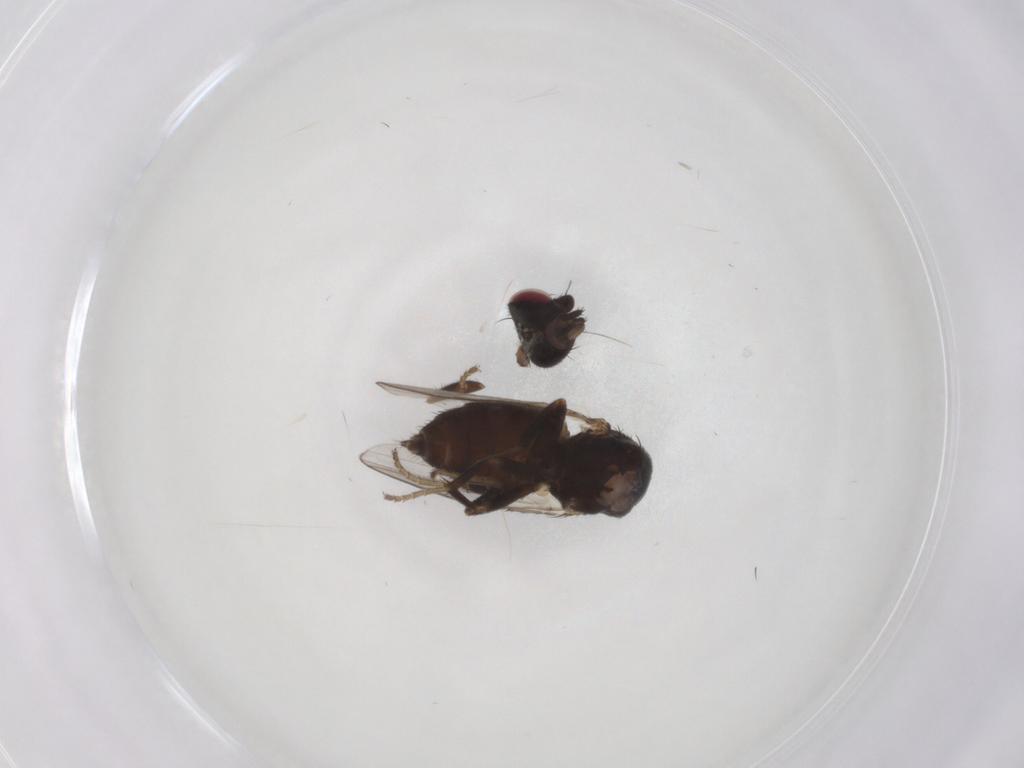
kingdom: Animalia
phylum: Arthropoda
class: Insecta
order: Diptera
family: Milichiidae
